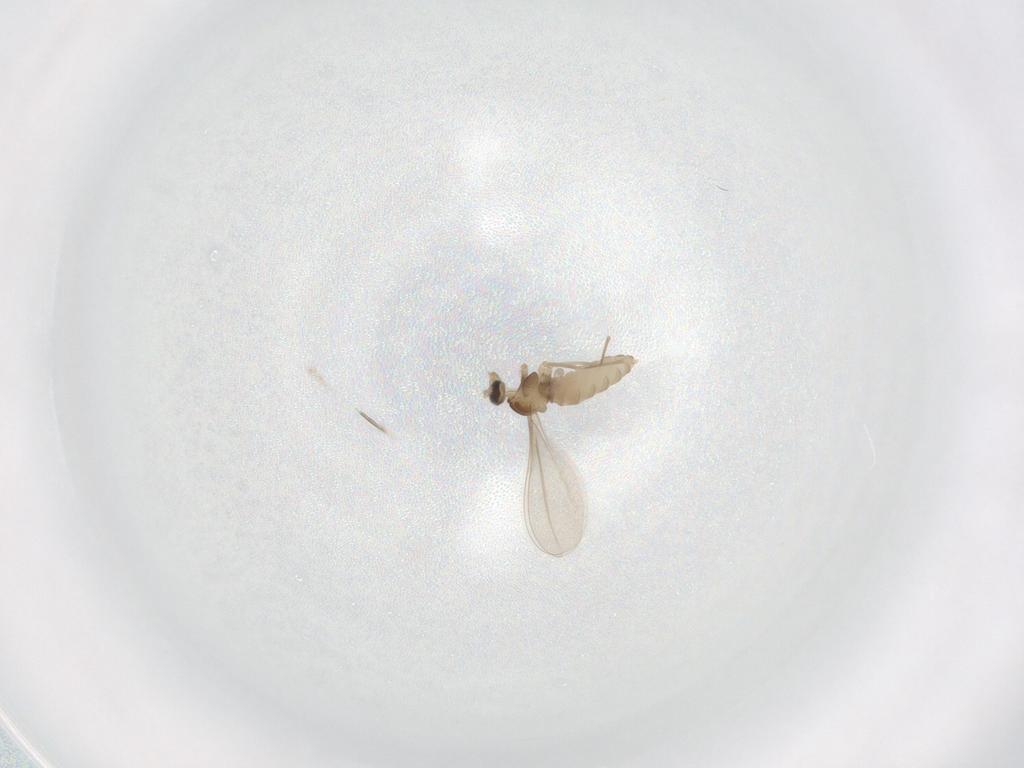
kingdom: Animalia
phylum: Arthropoda
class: Insecta
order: Diptera
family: Cecidomyiidae
